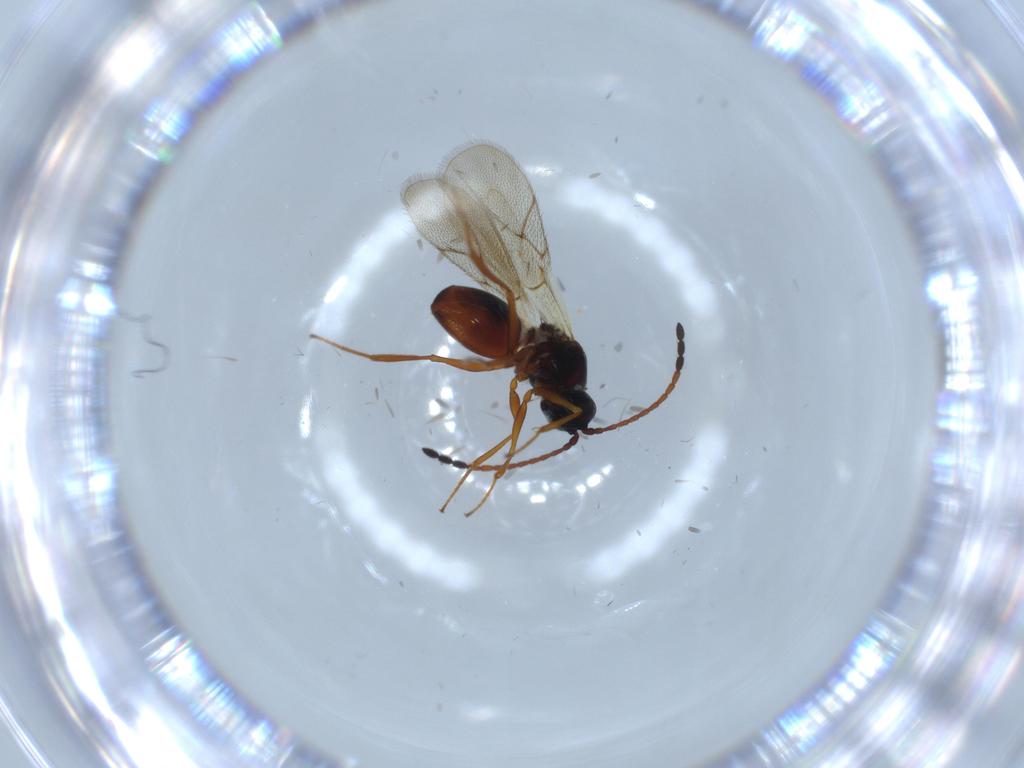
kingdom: Animalia
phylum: Arthropoda
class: Insecta
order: Hymenoptera
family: Figitidae
